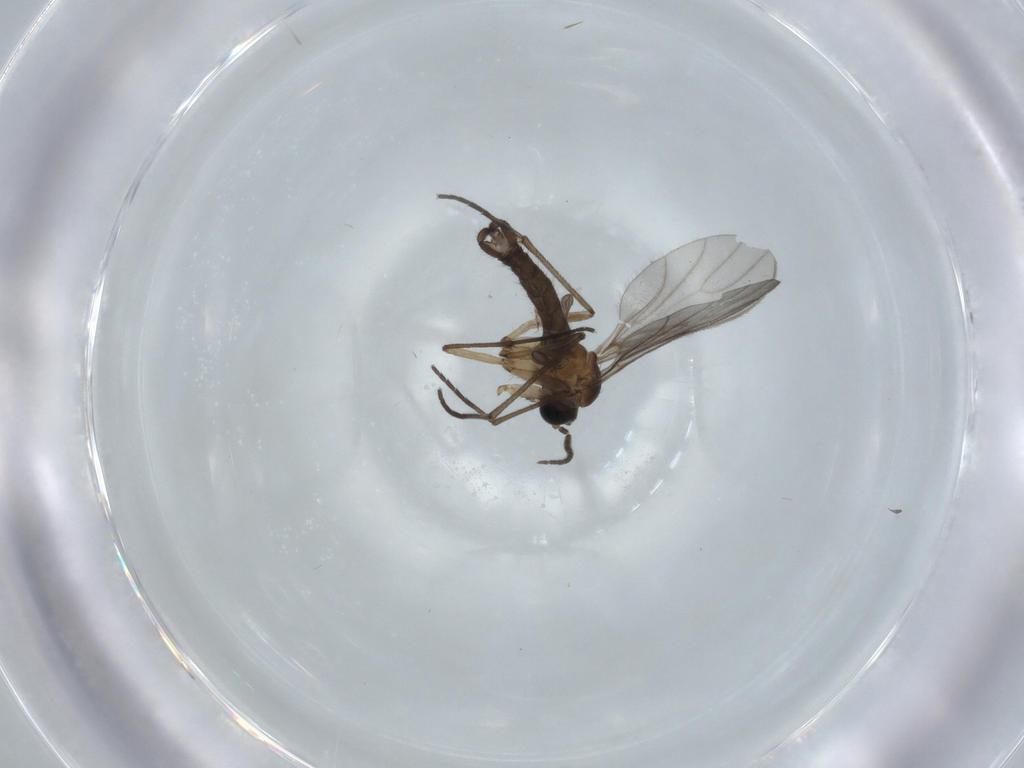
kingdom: Animalia
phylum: Arthropoda
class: Insecta
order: Diptera
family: Sciaridae
